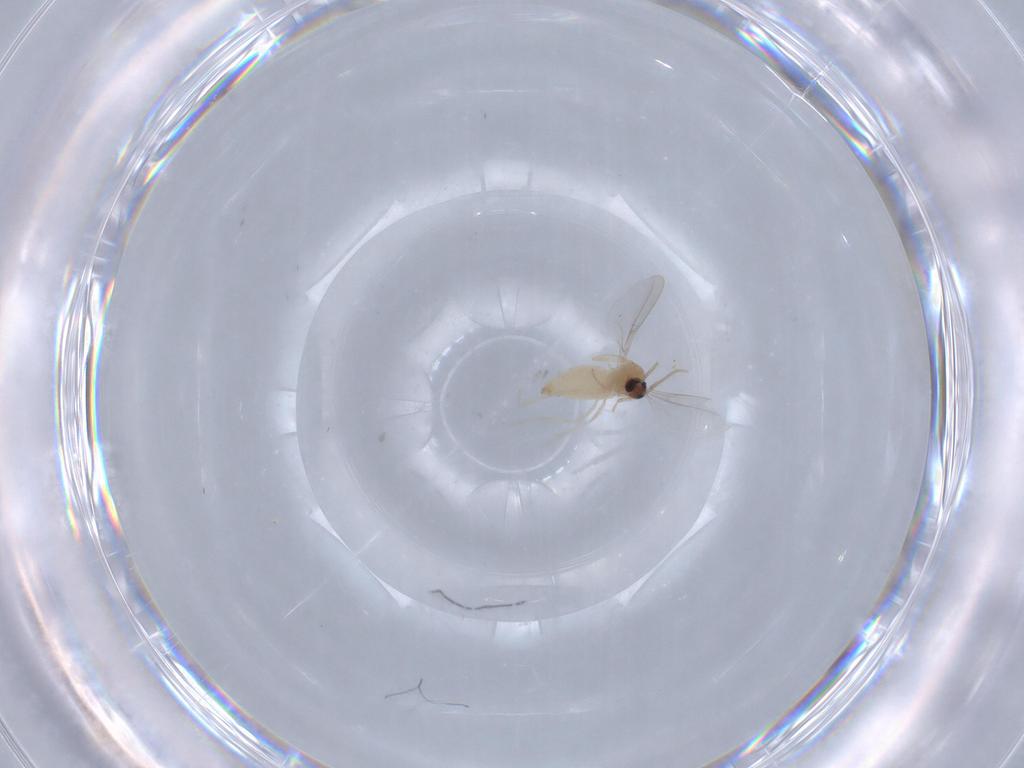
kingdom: Animalia
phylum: Arthropoda
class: Insecta
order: Diptera
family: Cecidomyiidae
